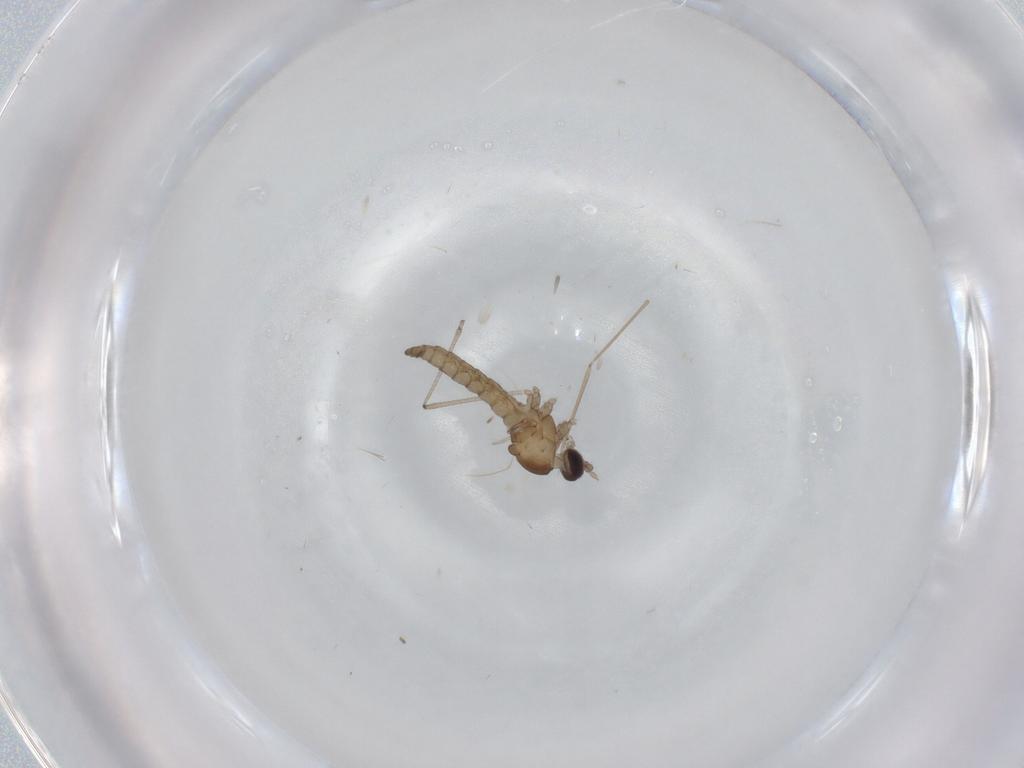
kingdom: Animalia
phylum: Arthropoda
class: Insecta
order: Diptera
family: Cecidomyiidae
